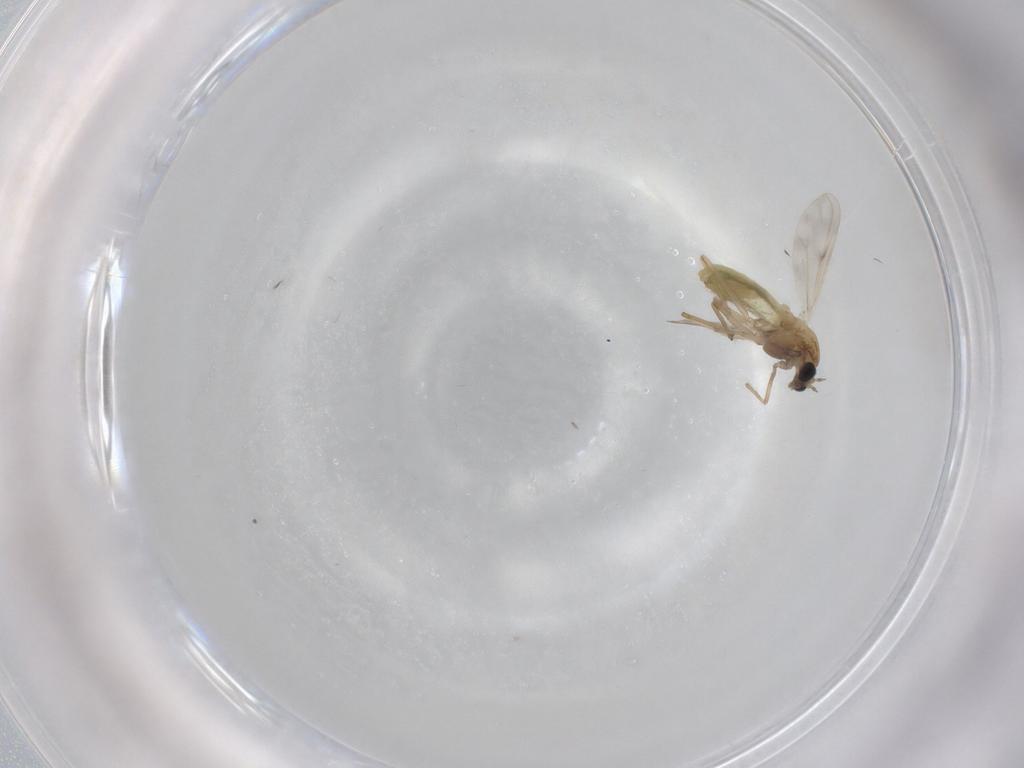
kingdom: Animalia
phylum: Arthropoda
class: Insecta
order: Diptera
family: Chironomidae
